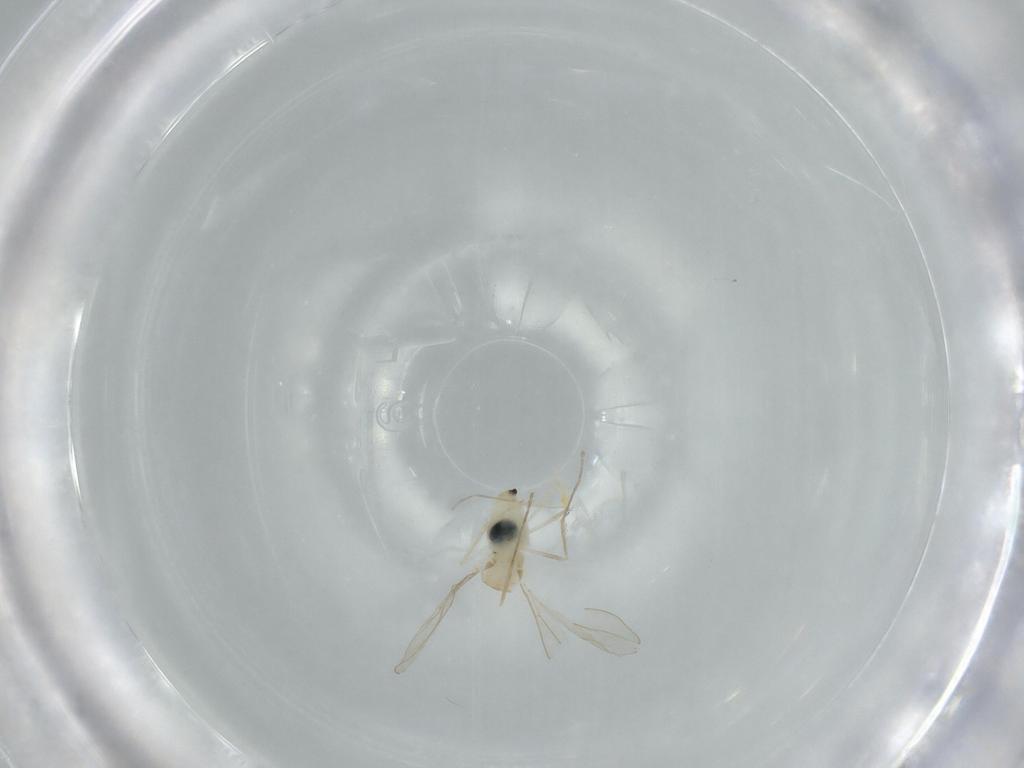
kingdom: Animalia
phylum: Arthropoda
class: Insecta
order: Diptera
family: Cecidomyiidae
